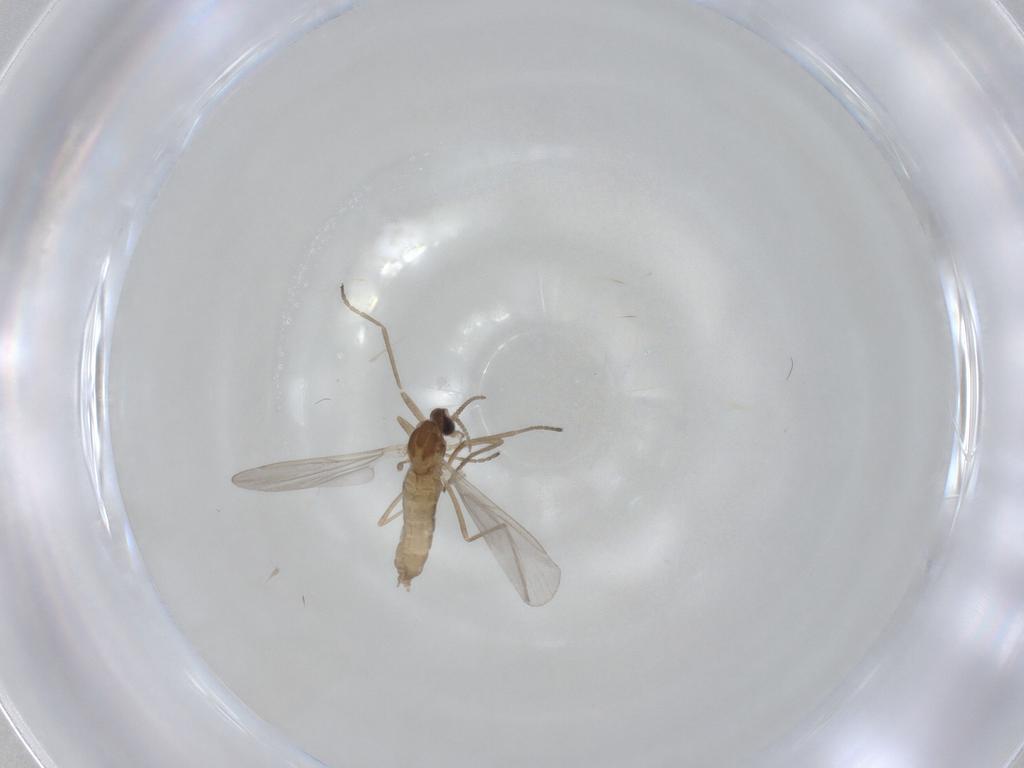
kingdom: Animalia
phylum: Arthropoda
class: Insecta
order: Diptera
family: Cecidomyiidae
